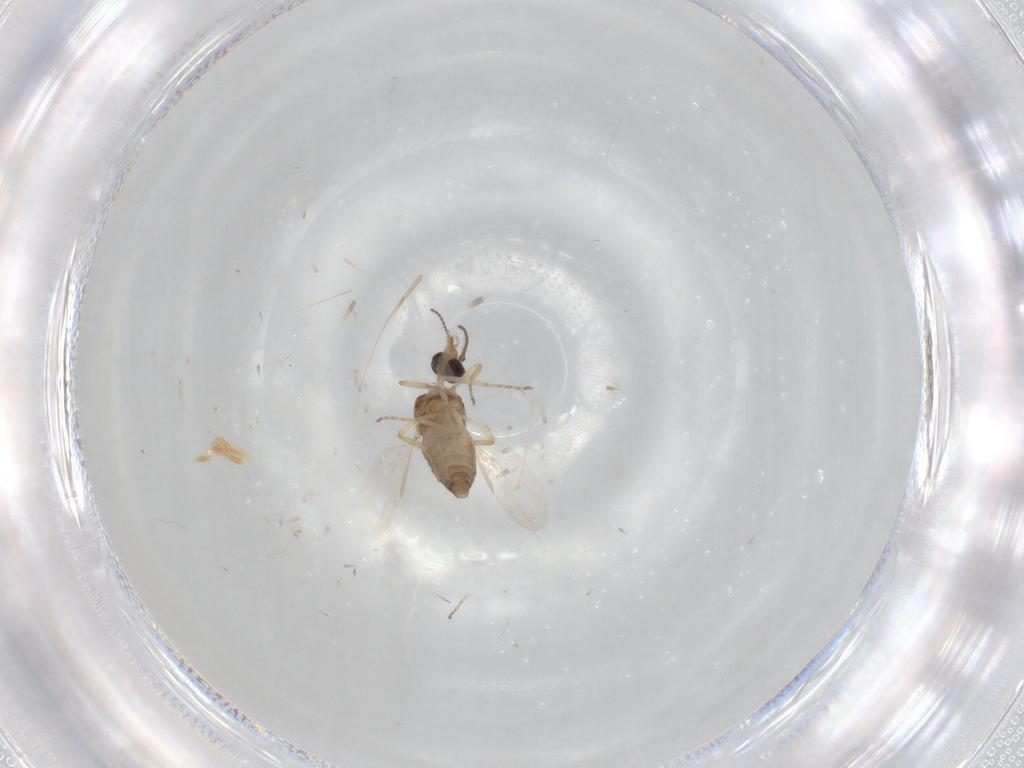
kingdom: Animalia
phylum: Arthropoda
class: Insecta
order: Diptera
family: Ceratopogonidae
